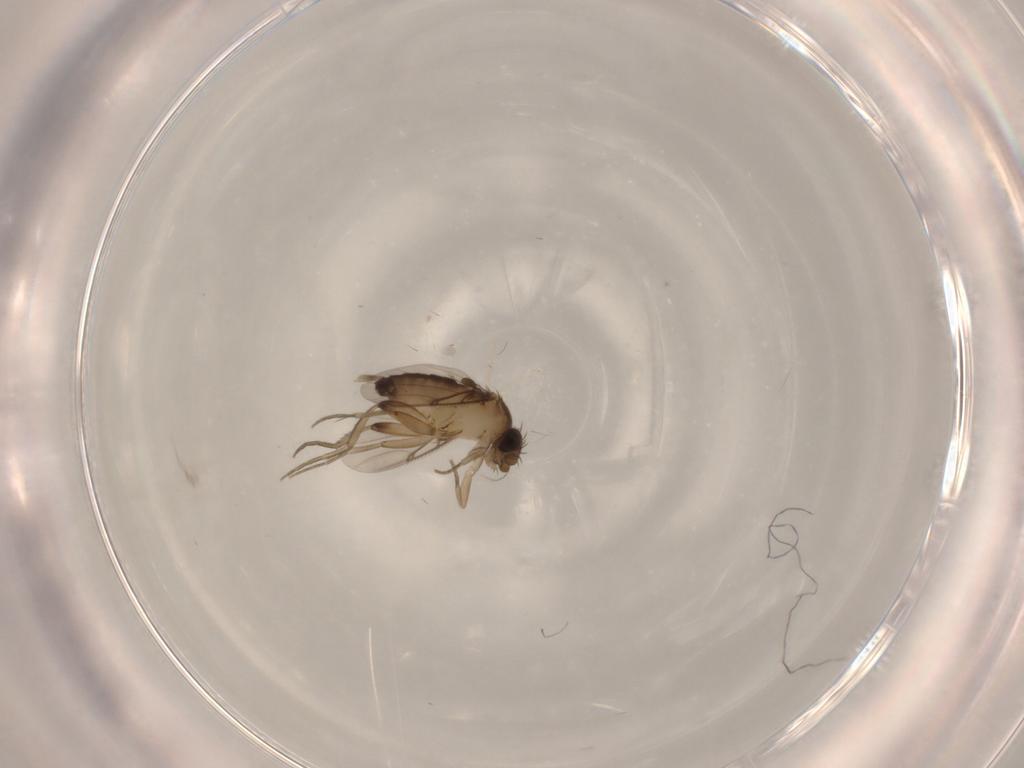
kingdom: Animalia
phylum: Arthropoda
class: Insecta
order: Diptera
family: Phoridae
